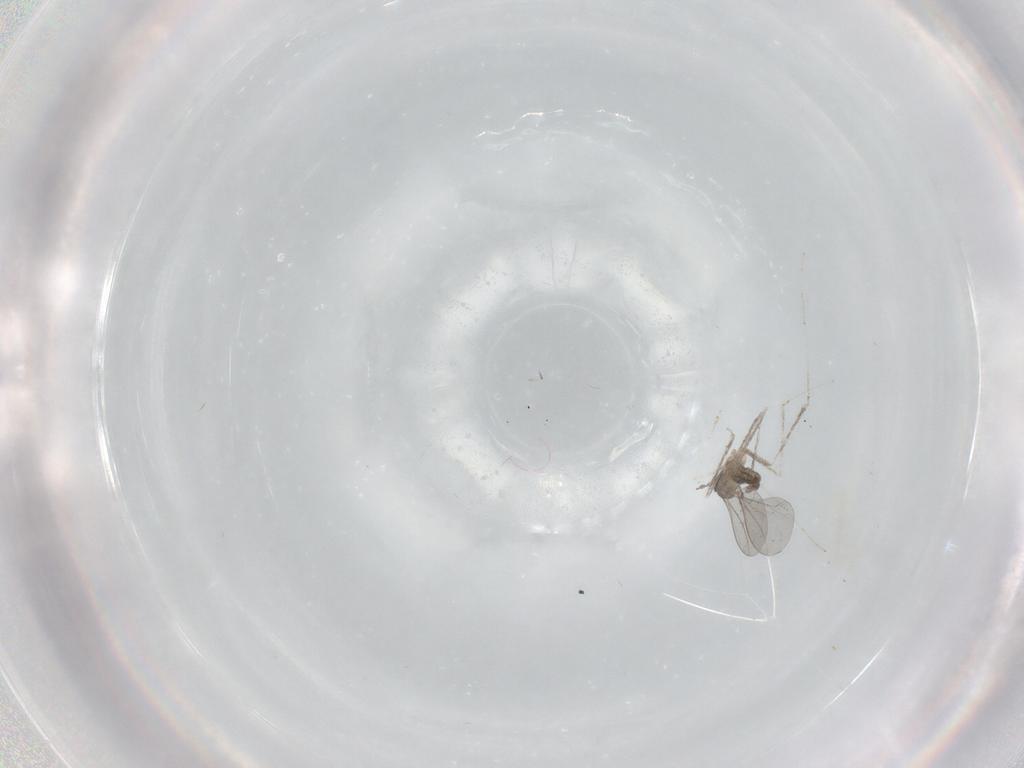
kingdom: Animalia
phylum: Arthropoda
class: Insecta
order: Diptera
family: Cecidomyiidae
